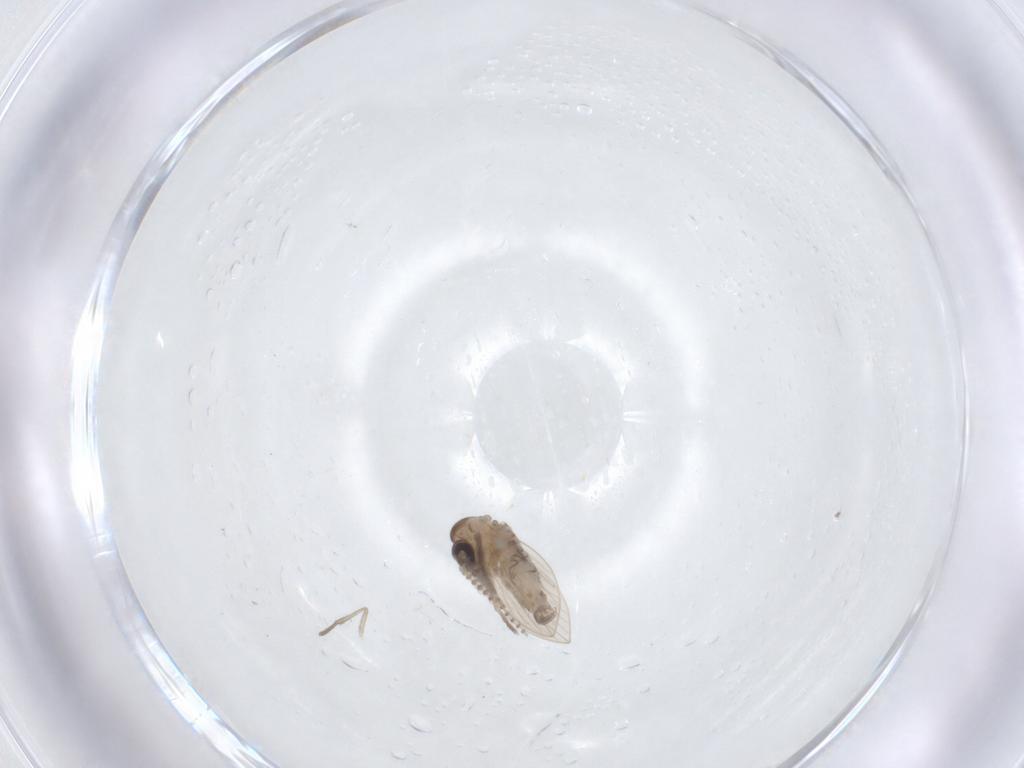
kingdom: Animalia
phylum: Arthropoda
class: Insecta
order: Diptera
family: Psychodidae
